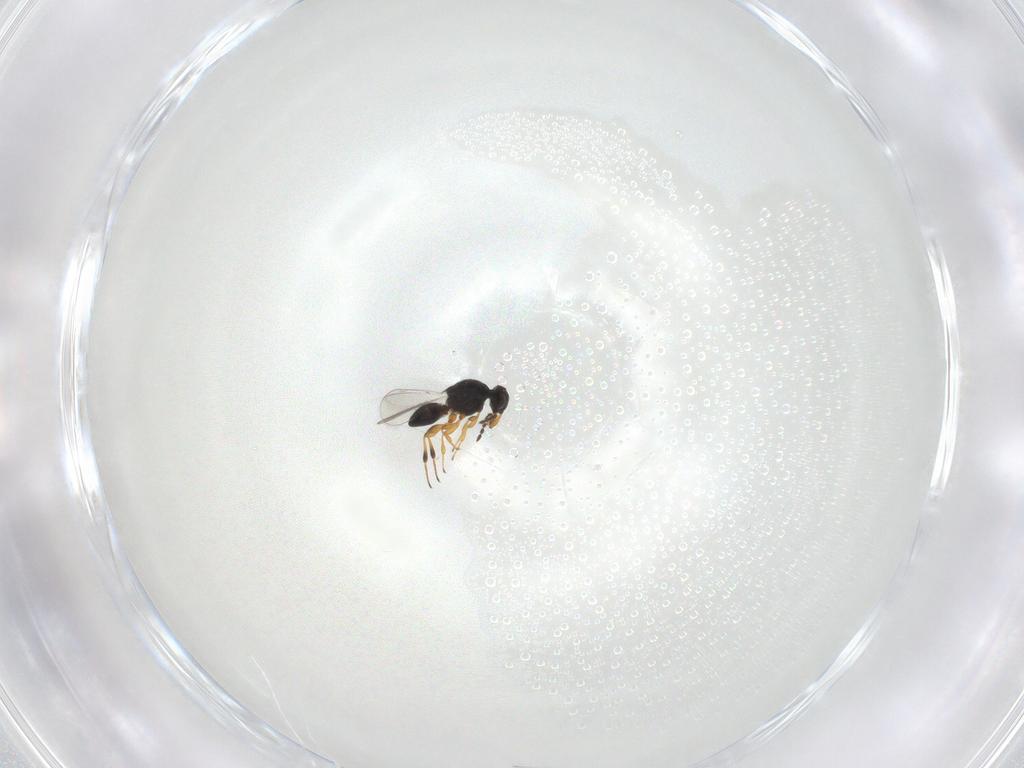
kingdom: Animalia
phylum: Arthropoda
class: Insecta
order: Hymenoptera
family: Platygastridae
